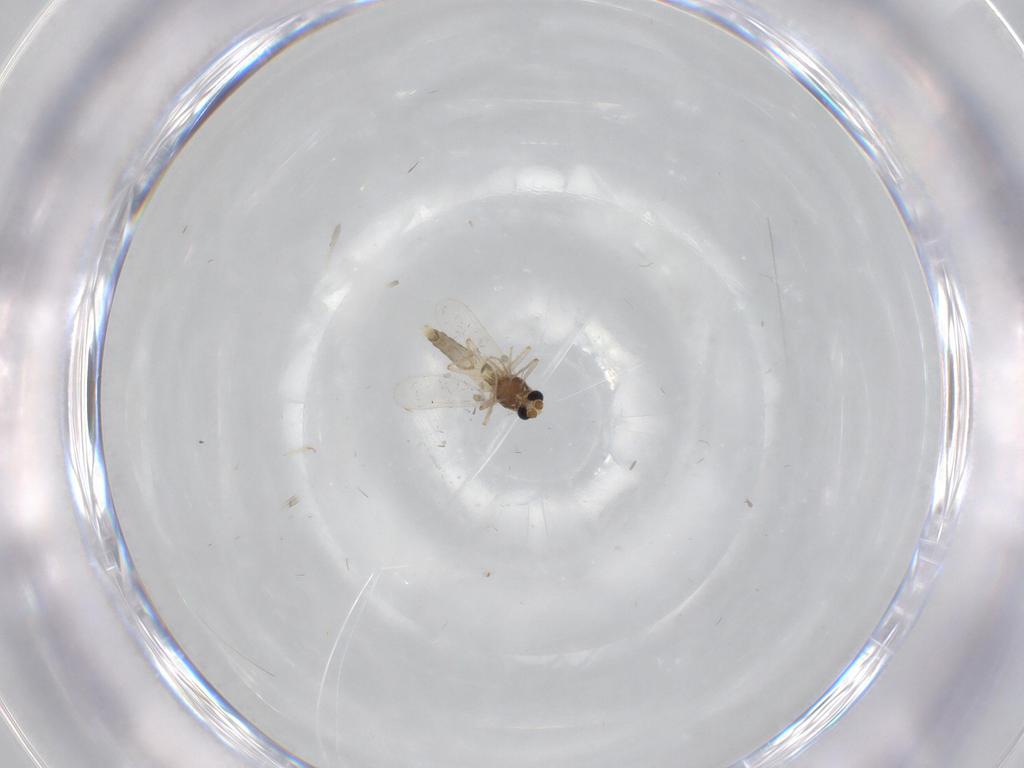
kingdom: Animalia
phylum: Arthropoda
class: Insecta
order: Diptera
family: Chironomidae
